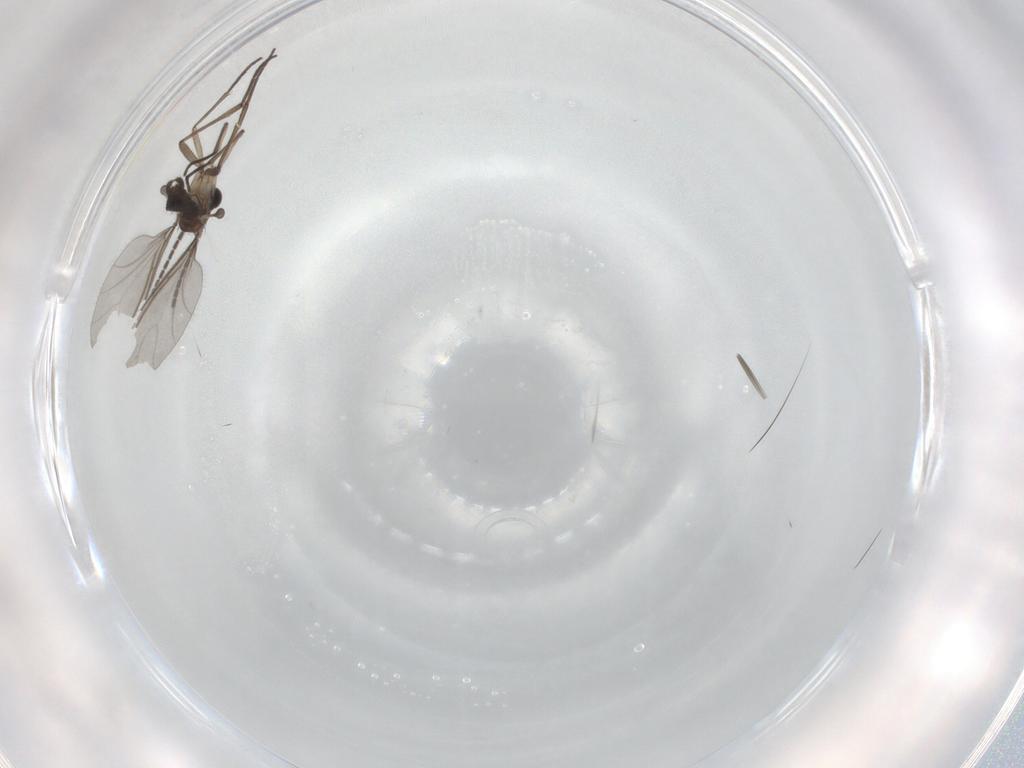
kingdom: Animalia
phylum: Arthropoda
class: Insecta
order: Diptera
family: Sciaridae
